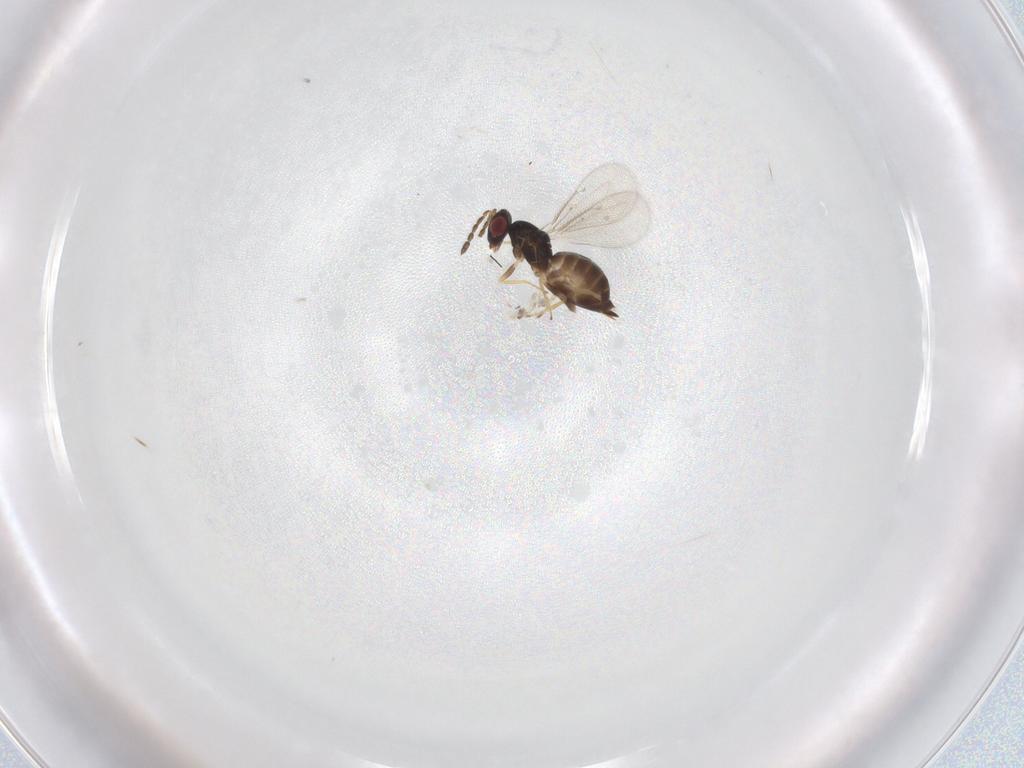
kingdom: Animalia
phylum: Arthropoda
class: Insecta
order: Hymenoptera
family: Eulophidae
